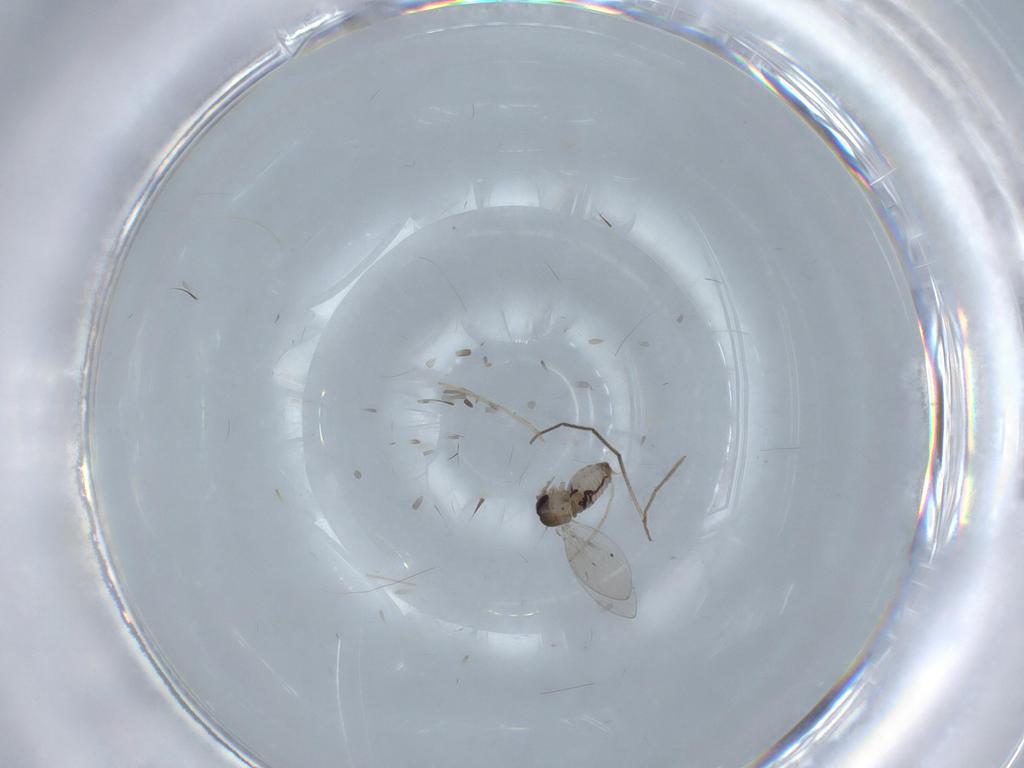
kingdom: Animalia
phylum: Arthropoda
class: Insecta
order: Diptera
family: Psychodidae
